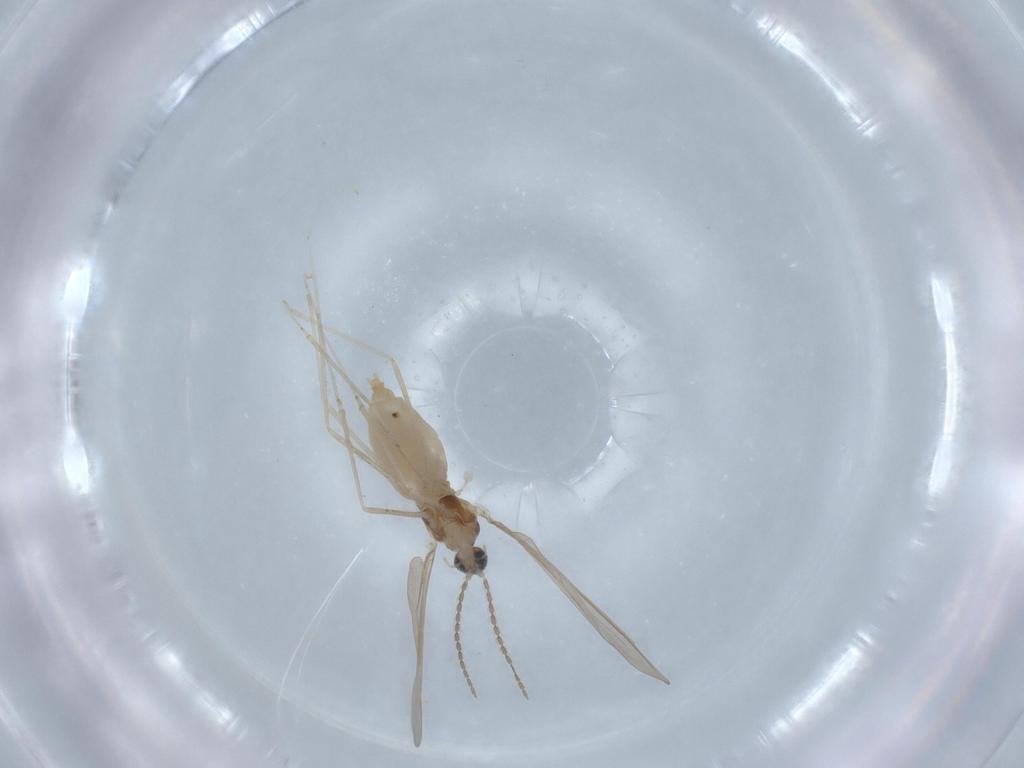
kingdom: Animalia
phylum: Arthropoda
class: Insecta
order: Diptera
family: Cecidomyiidae
